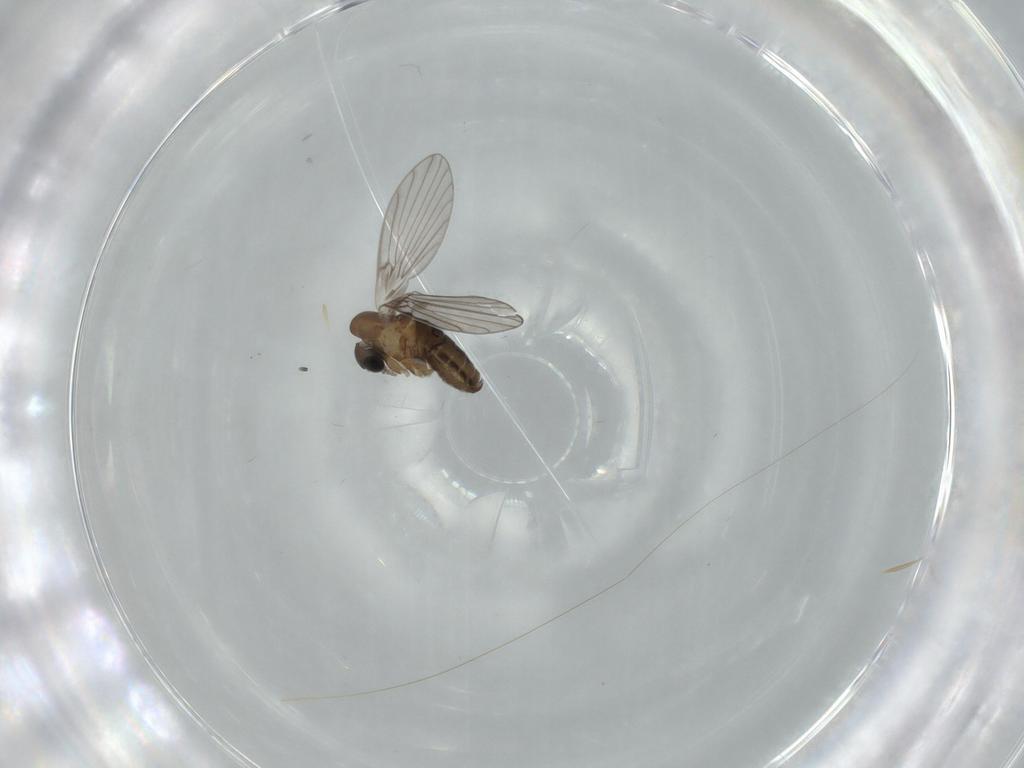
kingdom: Animalia
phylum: Arthropoda
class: Insecta
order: Diptera
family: Psychodidae
